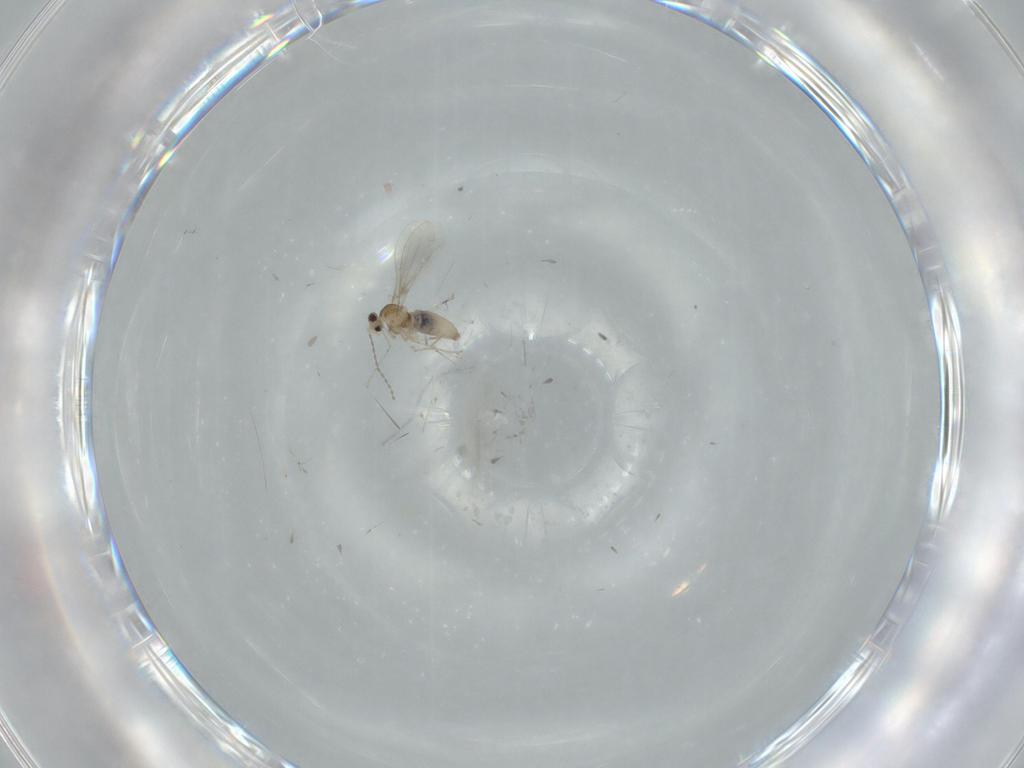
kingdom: Animalia
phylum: Arthropoda
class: Insecta
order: Diptera
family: Cecidomyiidae
